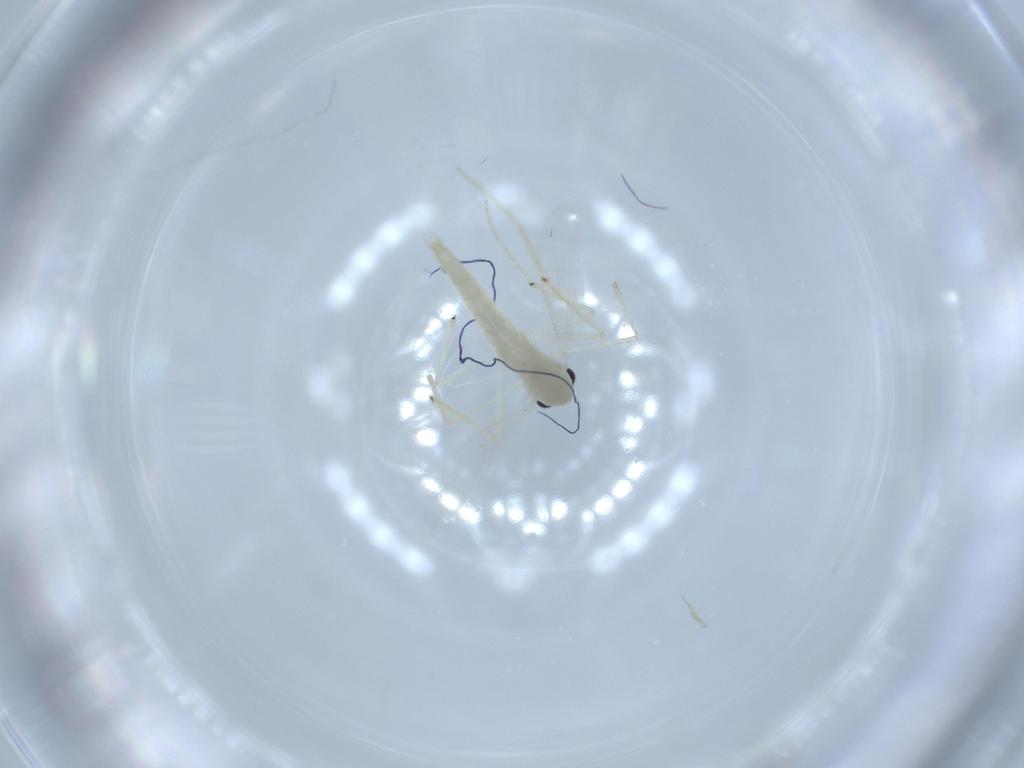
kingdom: Animalia
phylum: Arthropoda
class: Insecta
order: Diptera
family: Chironomidae
